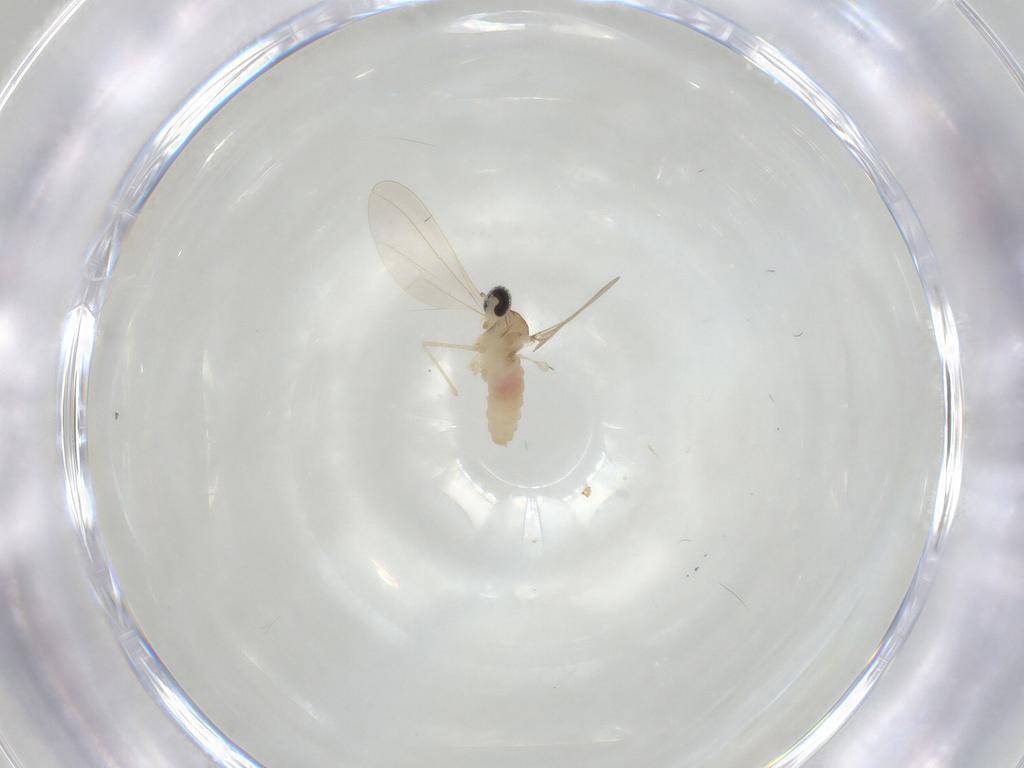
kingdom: Animalia
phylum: Arthropoda
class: Insecta
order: Diptera
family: Cecidomyiidae
